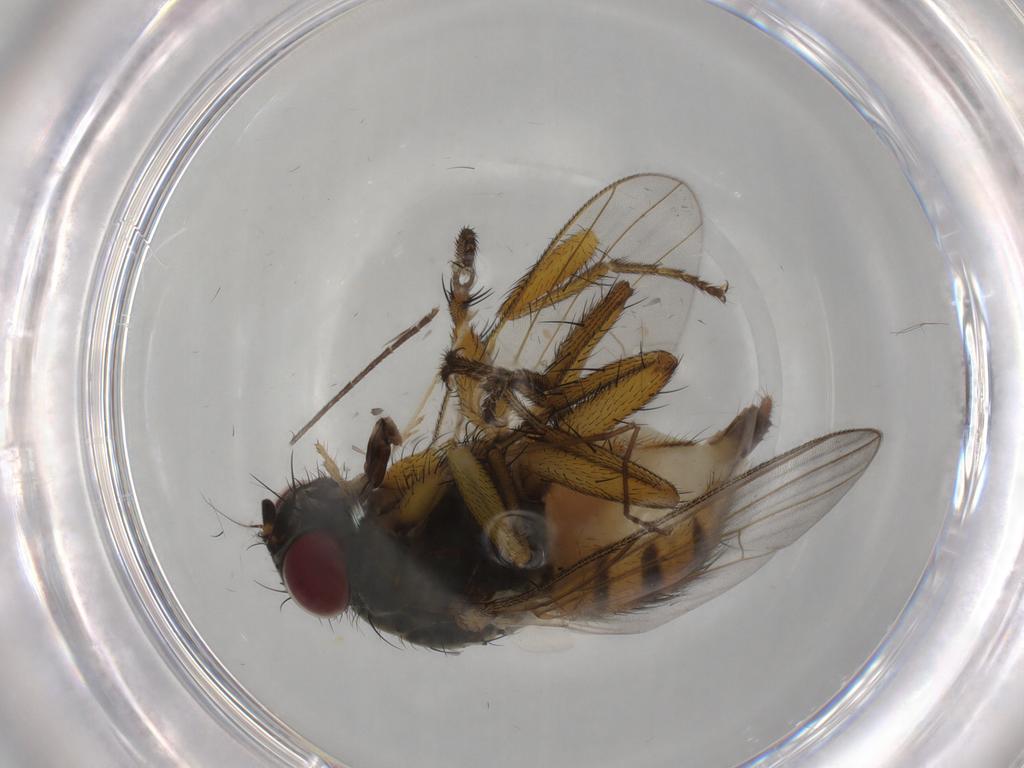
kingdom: Animalia
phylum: Arthropoda
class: Insecta
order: Diptera
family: Muscidae
